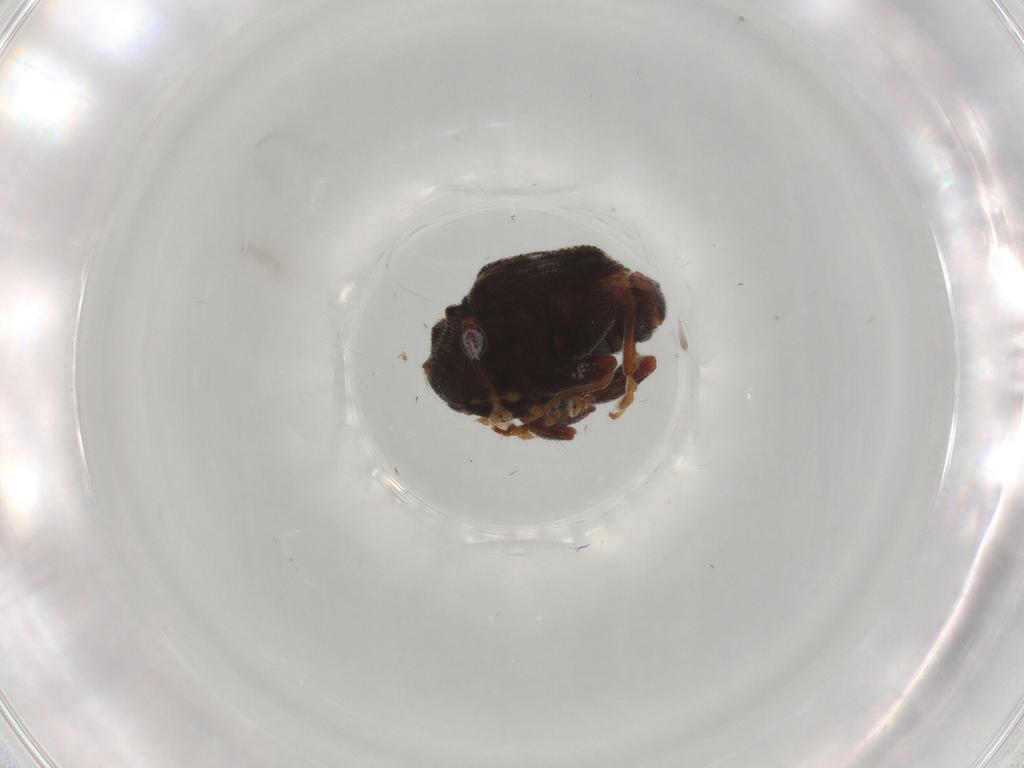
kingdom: Animalia
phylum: Arthropoda
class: Insecta
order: Coleoptera
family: Curculionidae
